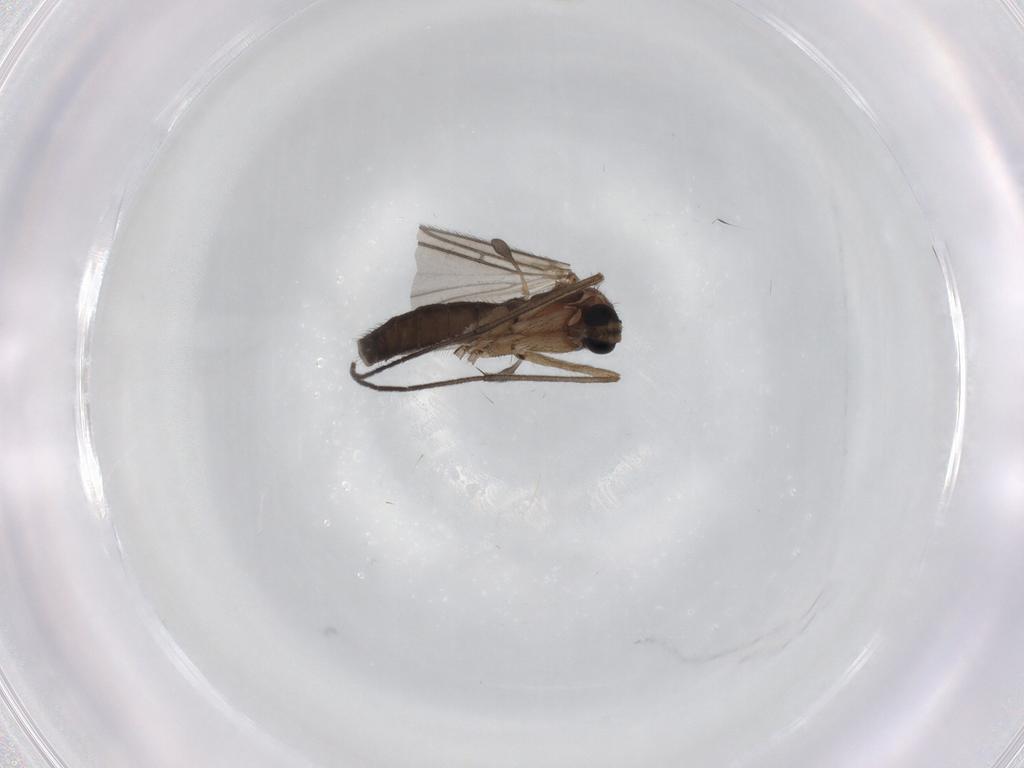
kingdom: Animalia
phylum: Arthropoda
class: Insecta
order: Diptera
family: Sciaridae
